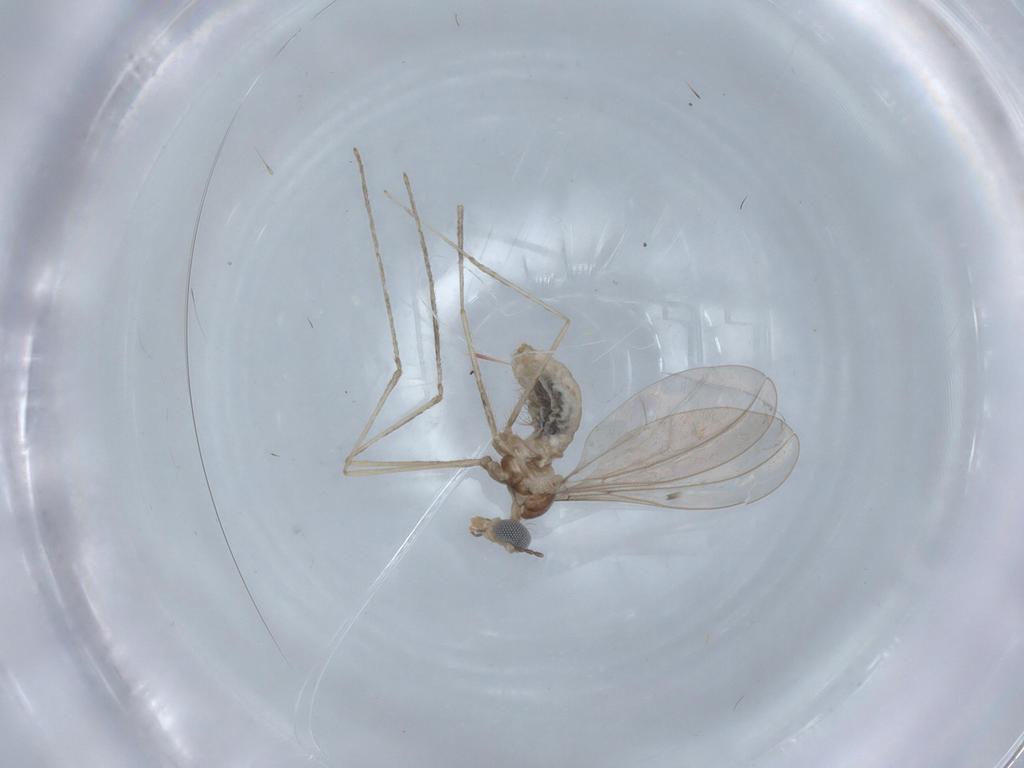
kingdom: Animalia
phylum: Arthropoda
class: Insecta
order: Diptera
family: Cecidomyiidae
